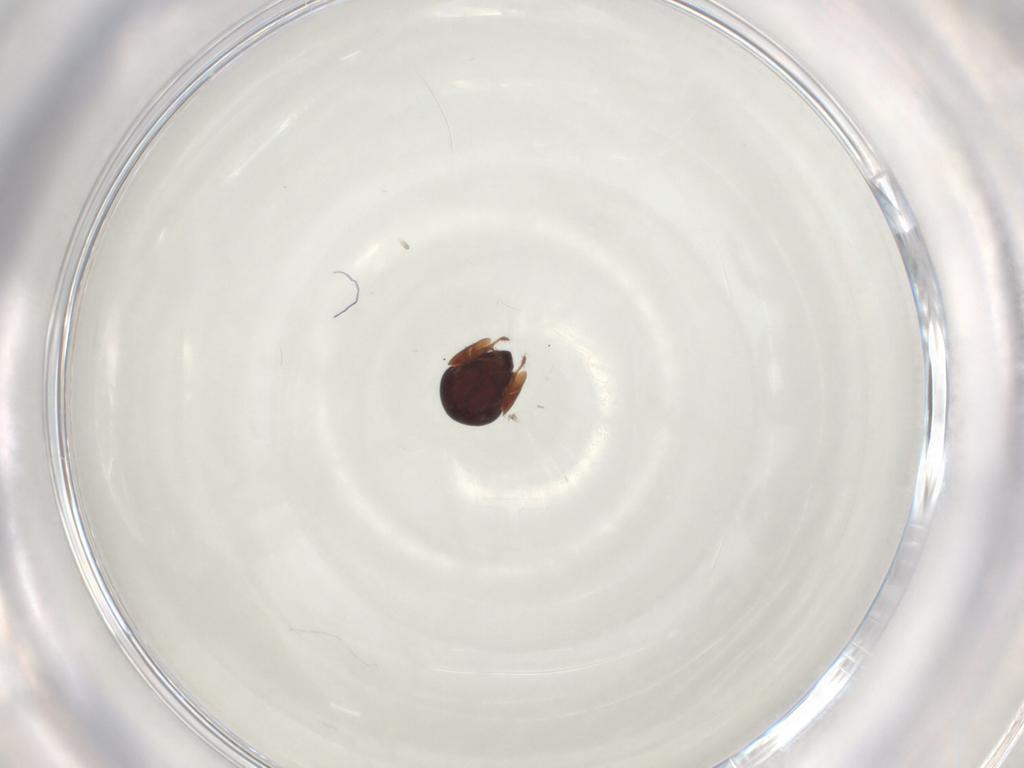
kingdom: Animalia
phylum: Arthropoda
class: Arachnida
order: Sarcoptiformes
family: Galumnidae
